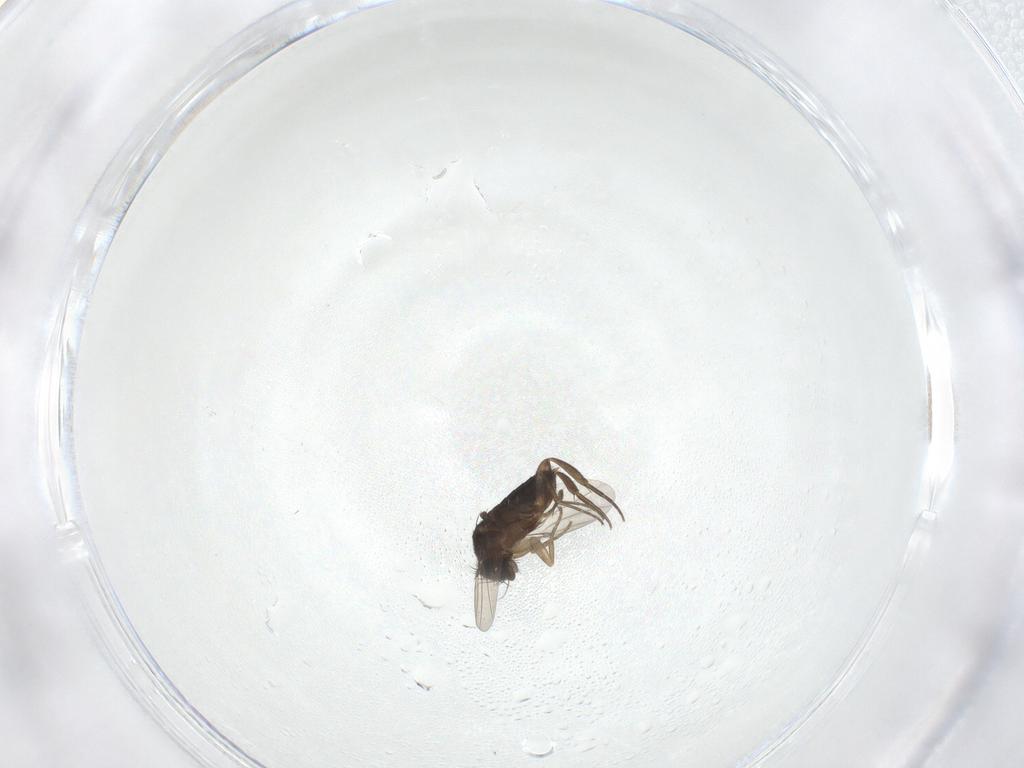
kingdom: Animalia
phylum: Arthropoda
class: Insecta
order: Diptera
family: Phoridae
